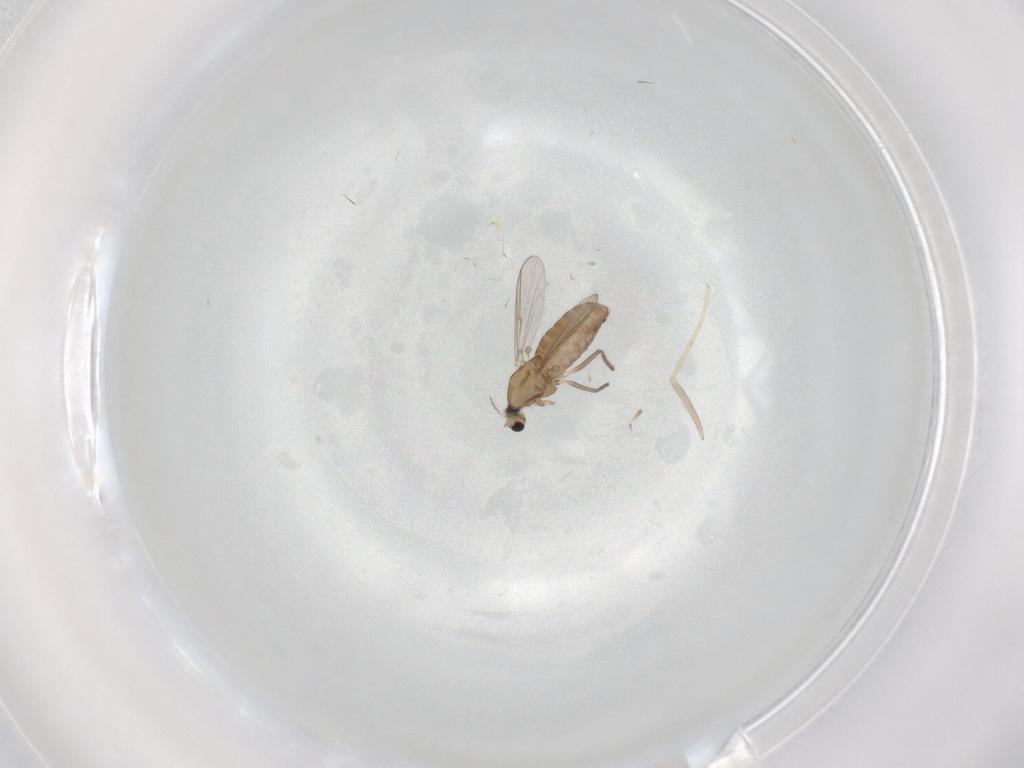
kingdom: Animalia
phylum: Arthropoda
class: Insecta
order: Diptera
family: Chironomidae
